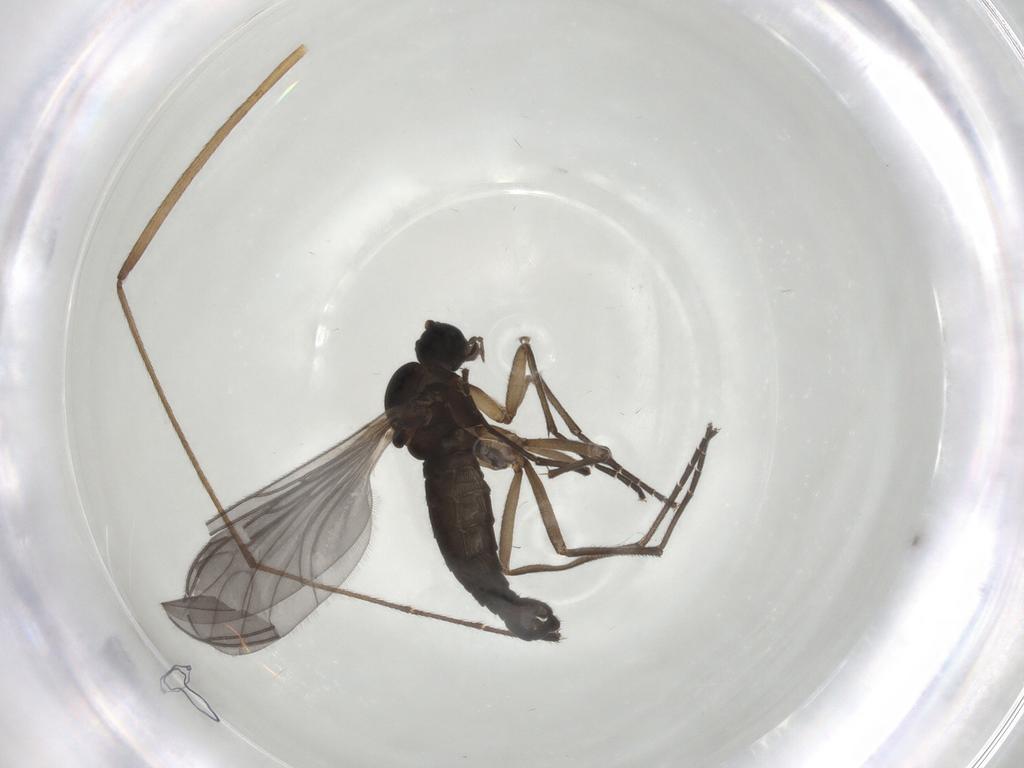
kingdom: Animalia
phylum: Arthropoda
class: Insecta
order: Diptera
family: Sciaridae
